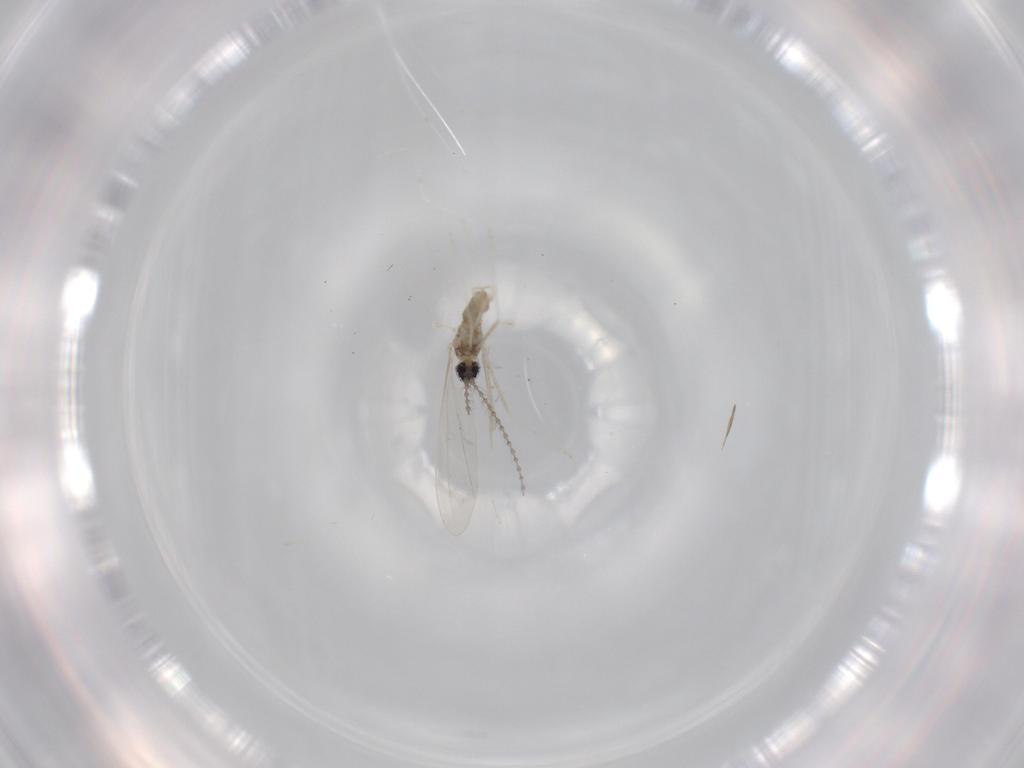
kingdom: Animalia
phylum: Arthropoda
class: Insecta
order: Diptera
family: Cecidomyiidae
